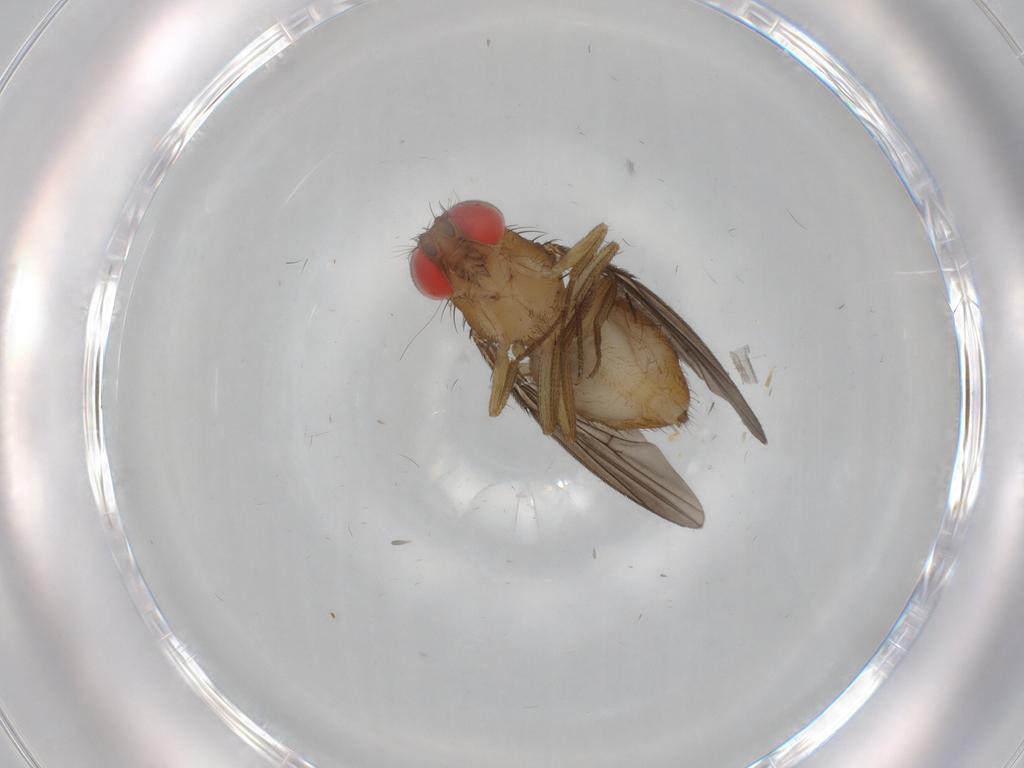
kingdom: Animalia
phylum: Arthropoda
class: Insecta
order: Diptera
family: Drosophilidae
